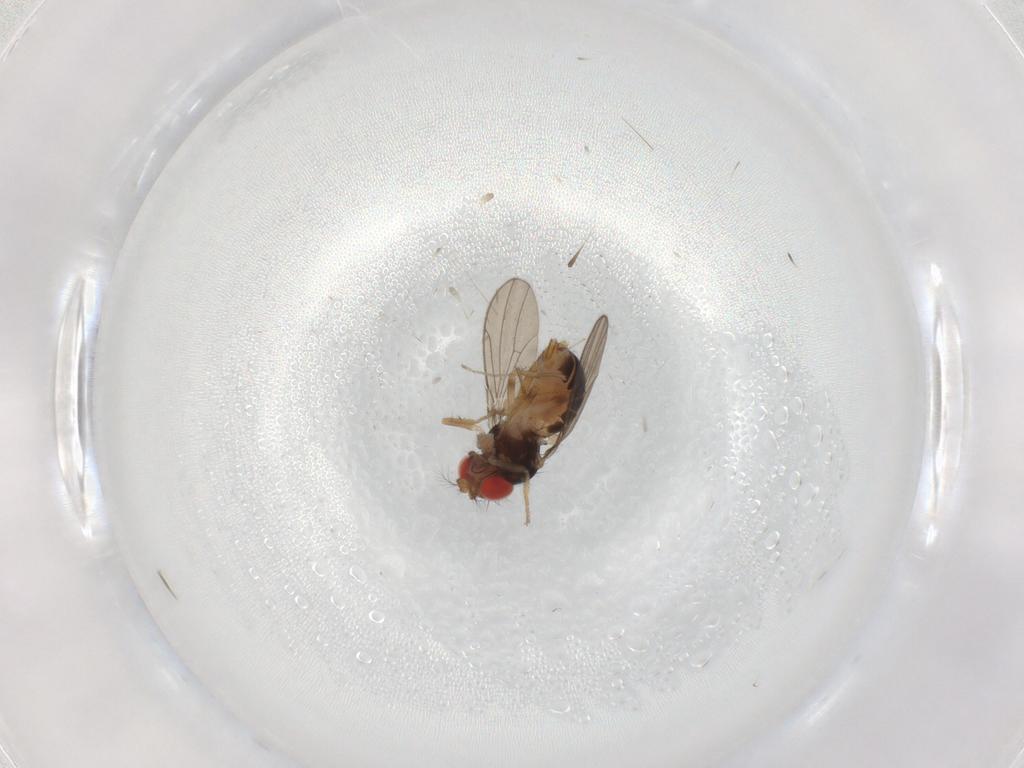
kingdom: Animalia
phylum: Arthropoda
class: Insecta
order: Diptera
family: Drosophilidae
